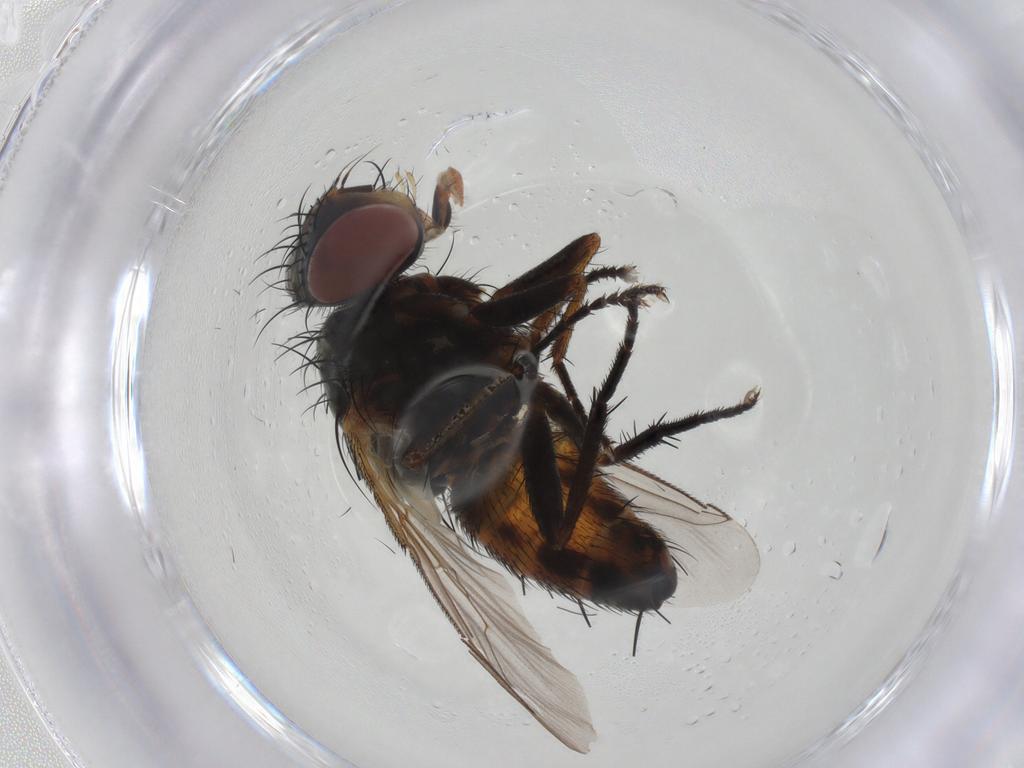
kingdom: Animalia
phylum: Arthropoda
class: Insecta
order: Diptera
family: Sarcophagidae
